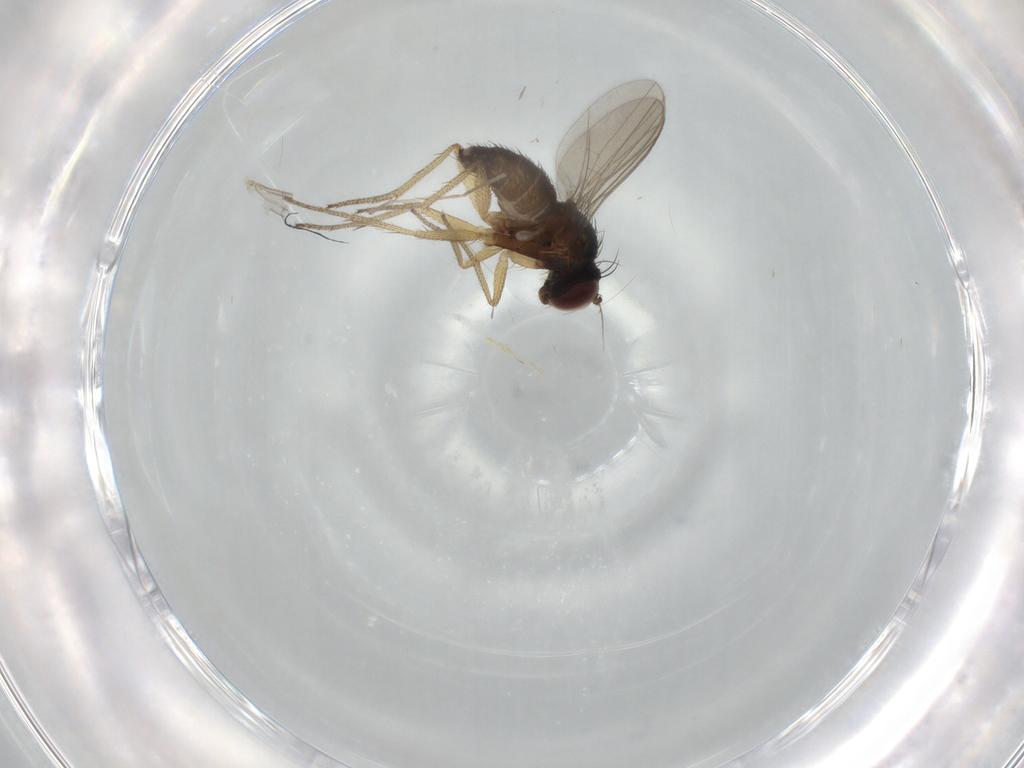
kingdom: Animalia
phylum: Arthropoda
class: Insecta
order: Diptera
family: Dolichopodidae
